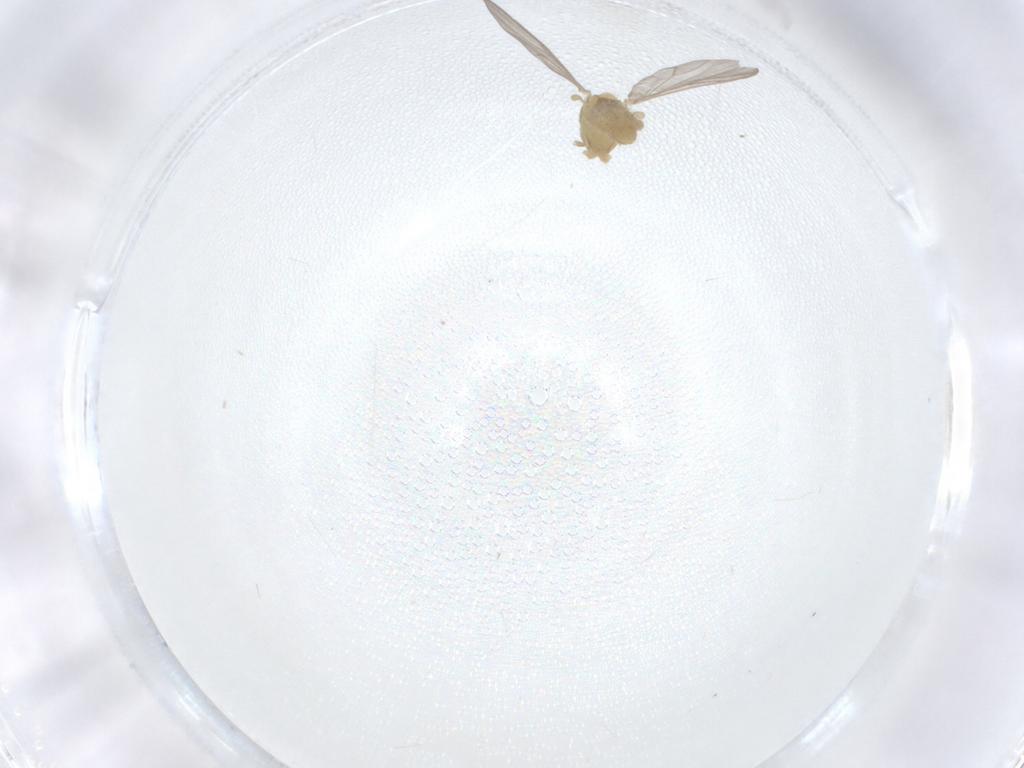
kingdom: Animalia
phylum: Arthropoda
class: Insecta
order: Diptera
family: Chironomidae
